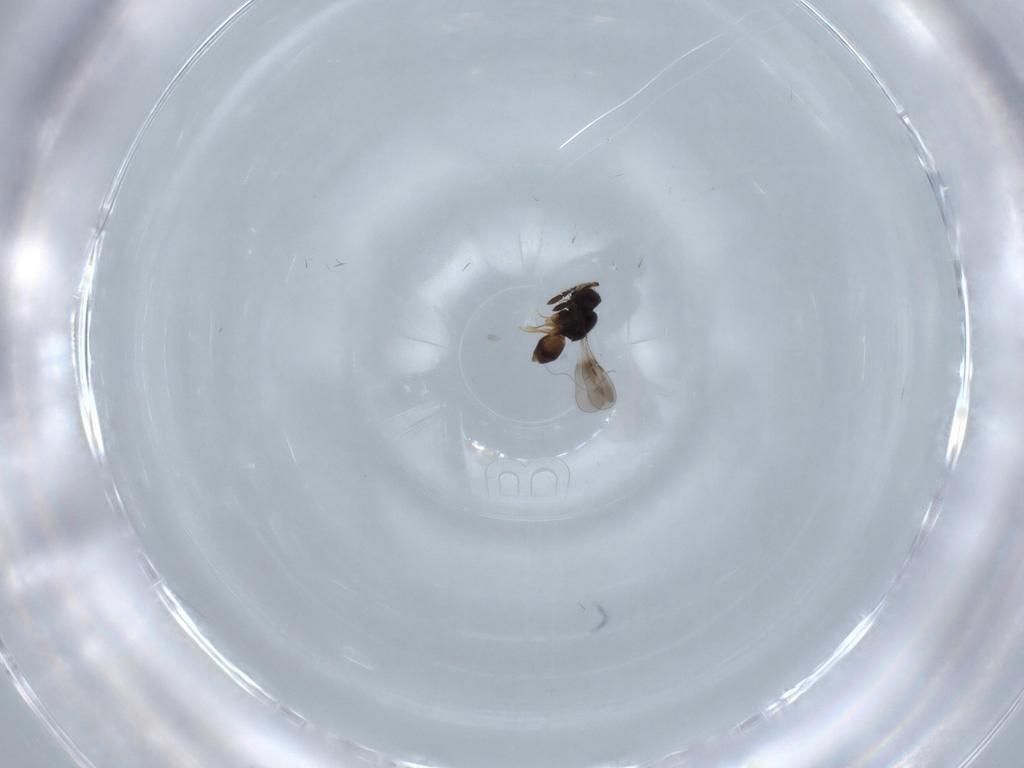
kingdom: Animalia
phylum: Arthropoda
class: Insecta
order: Hymenoptera
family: Ceraphronidae
